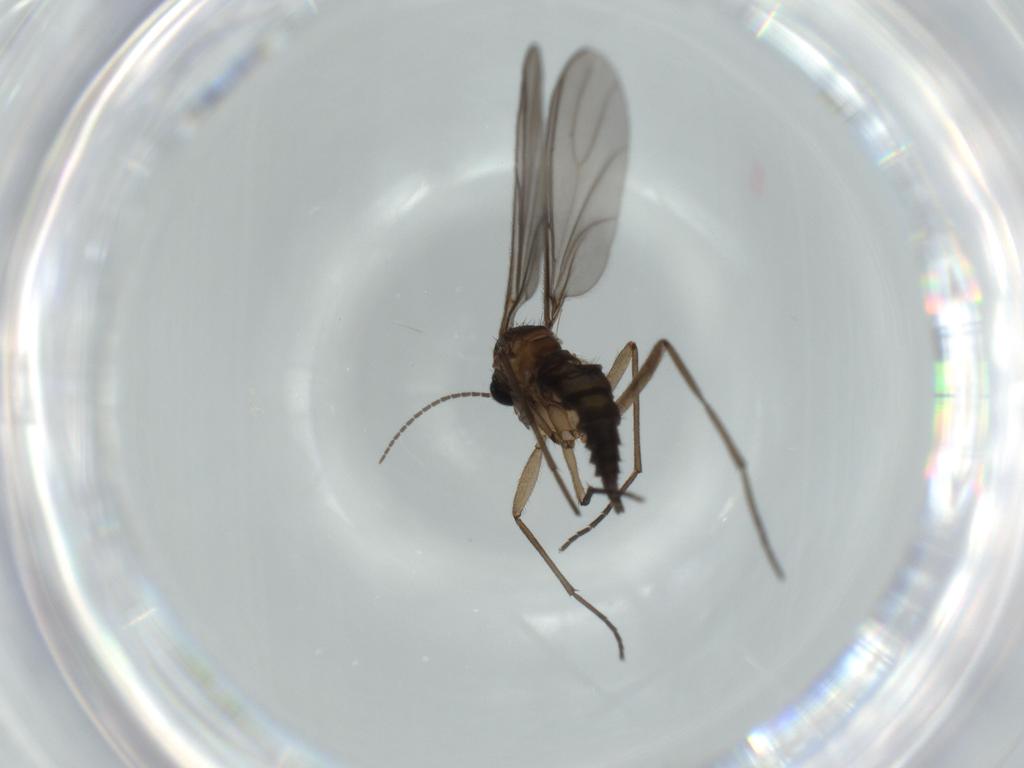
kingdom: Animalia
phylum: Arthropoda
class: Insecta
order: Diptera
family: Sciaridae
